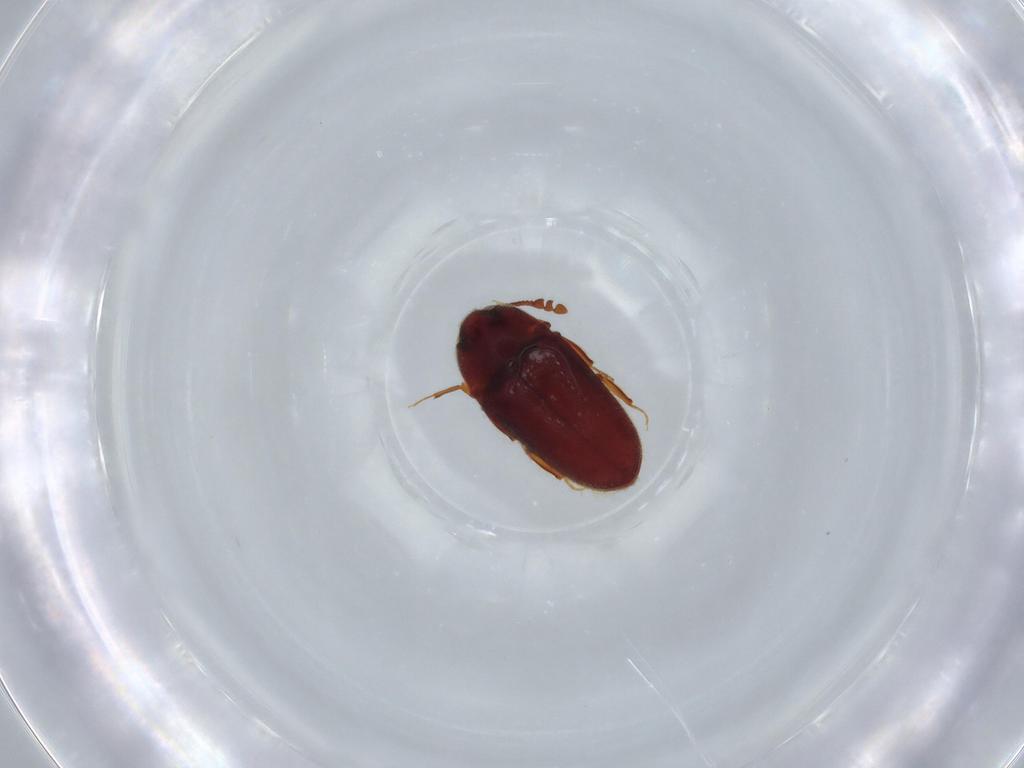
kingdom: Animalia
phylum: Arthropoda
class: Insecta
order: Coleoptera
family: Throscidae
